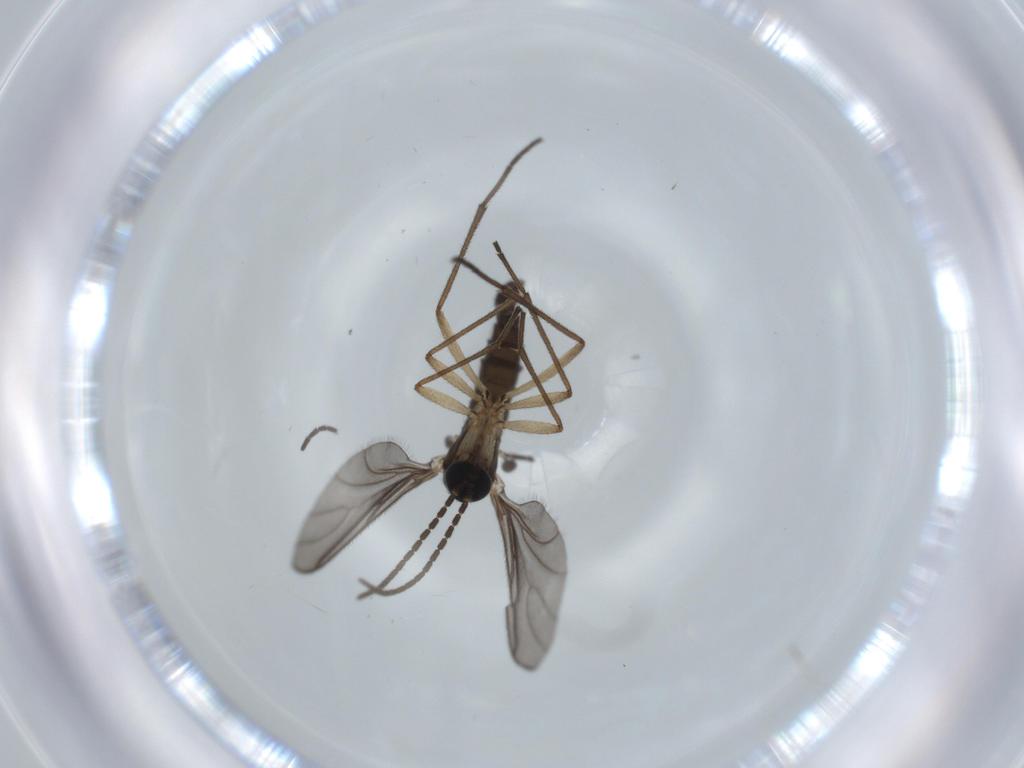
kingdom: Animalia
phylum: Arthropoda
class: Insecta
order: Diptera
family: Sciaridae
